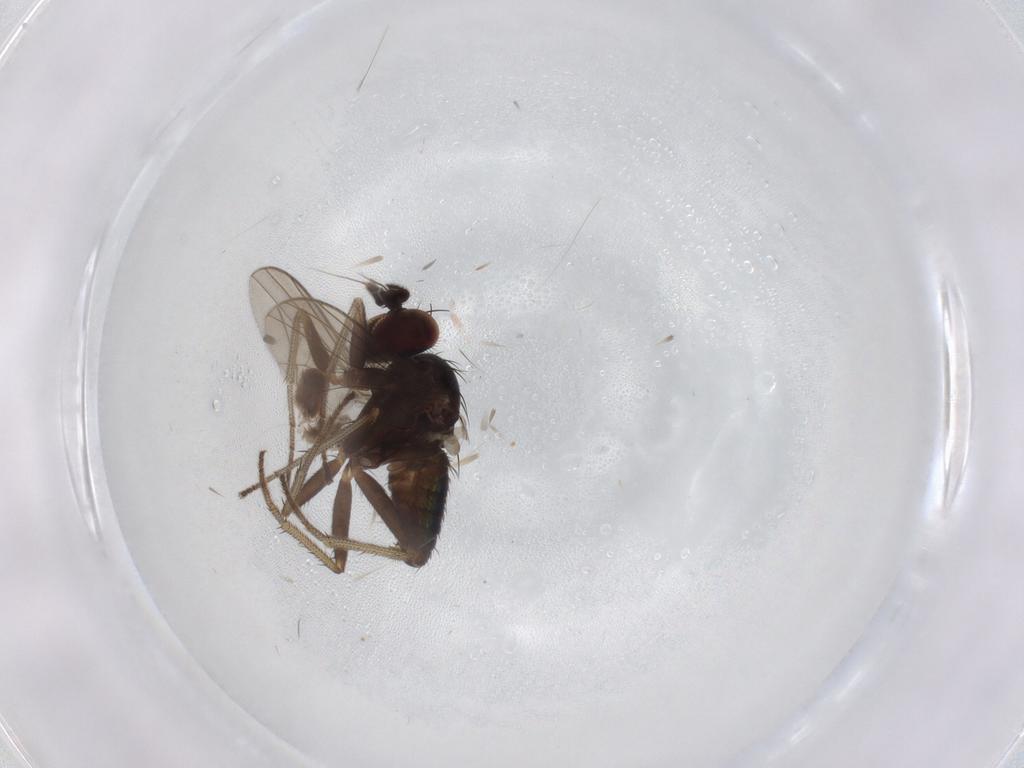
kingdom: Animalia
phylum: Arthropoda
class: Insecta
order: Diptera
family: Dolichopodidae
